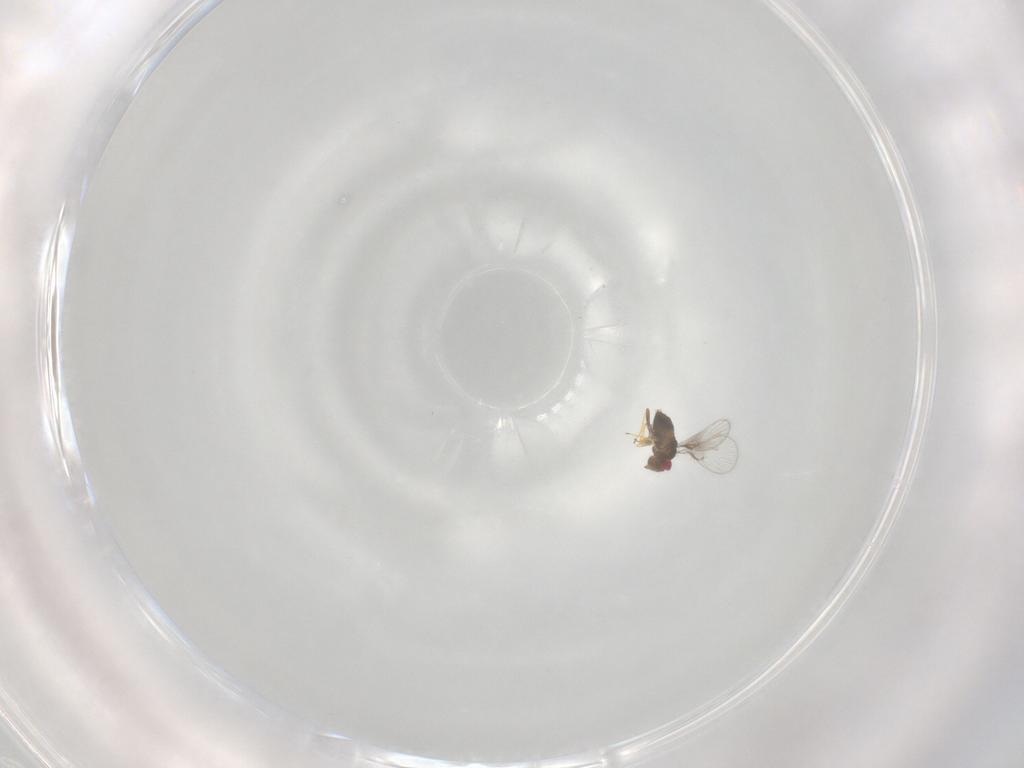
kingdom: Animalia
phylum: Arthropoda
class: Insecta
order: Hymenoptera
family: Trichogrammatidae
